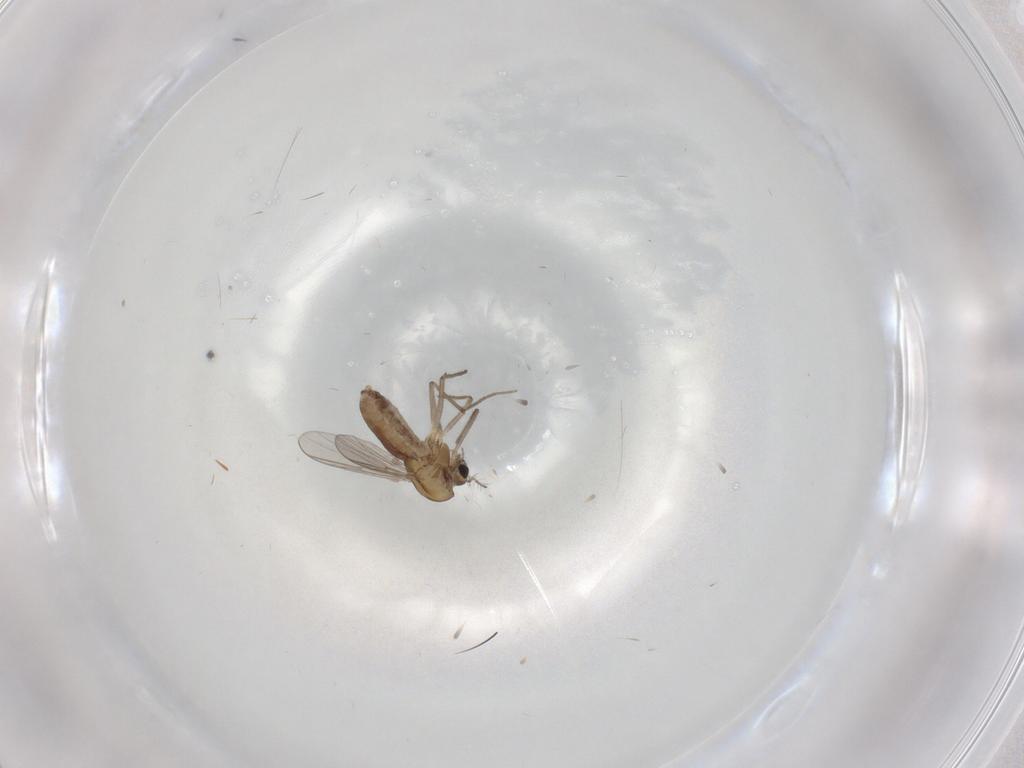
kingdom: Animalia
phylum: Arthropoda
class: Insecta
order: Diptera
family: Chironomidae
